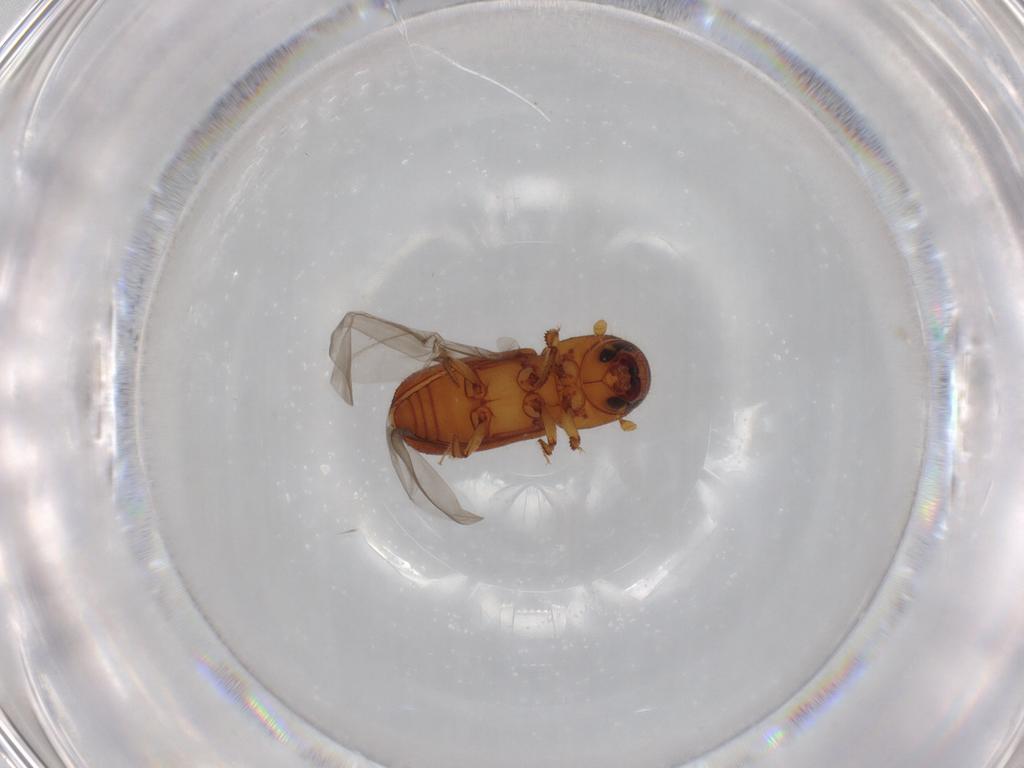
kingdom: Animalia
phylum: Arthropoda
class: Insecta
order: Coleoptera
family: Curculionidae
